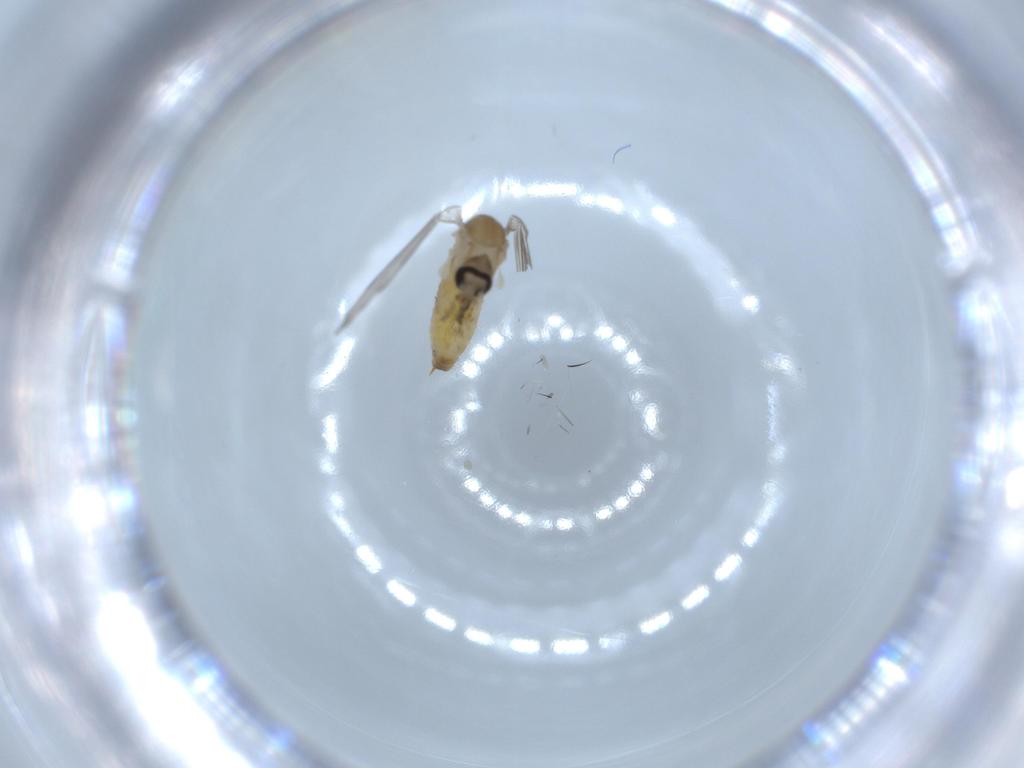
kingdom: Animalia
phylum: Arthropoda
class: Insecta
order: Diptera
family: Psychodidae
